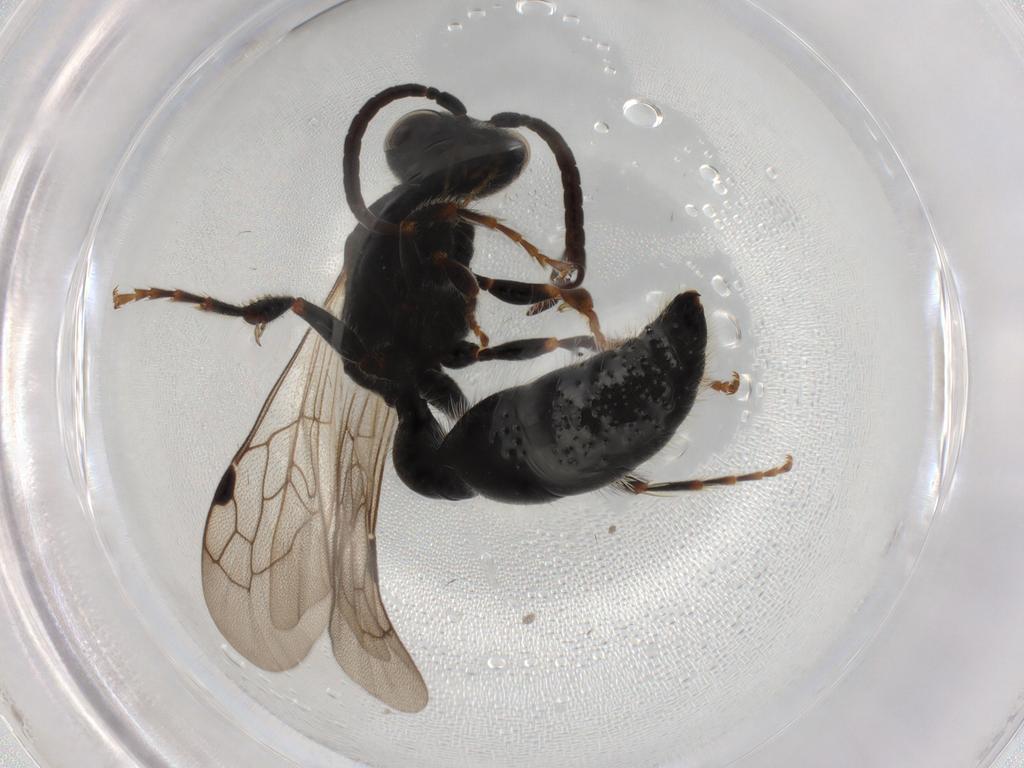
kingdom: Animalia
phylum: Arthropoda
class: Insecta
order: Hymenoptera
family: Tiphiidae
